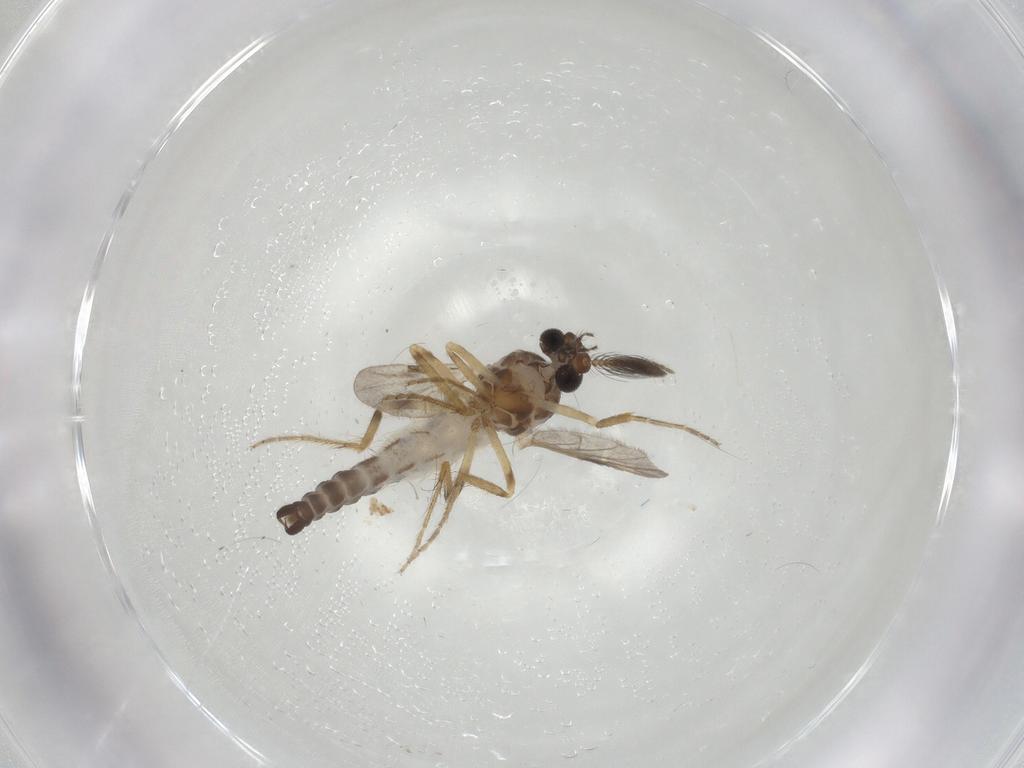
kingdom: Animalia
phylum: Arthropoda
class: Insecta
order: Diptera
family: Ceratopogonidae
